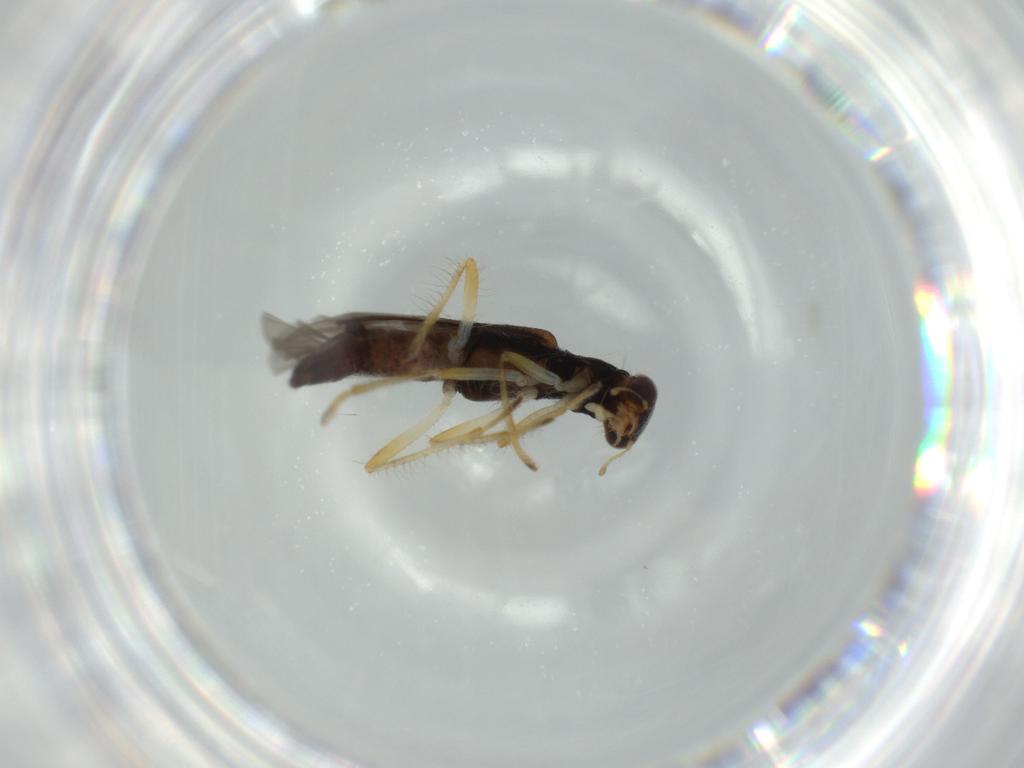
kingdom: Animalia
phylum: Arthropoda
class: Insecta
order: Coleoptera
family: Cleridae
